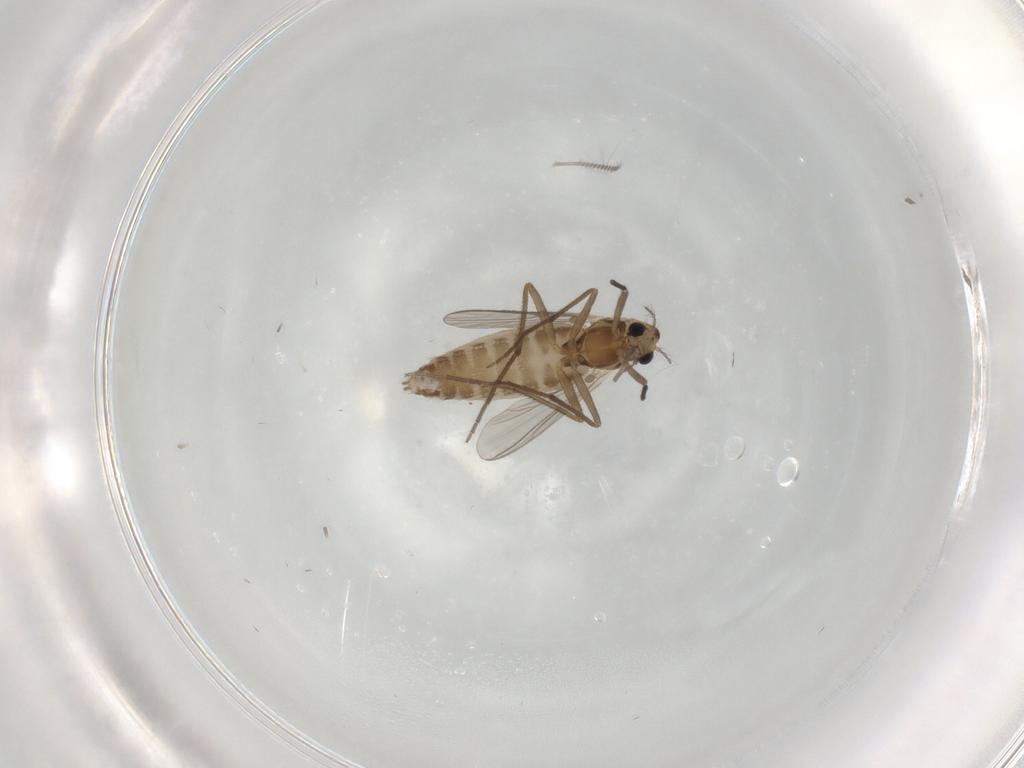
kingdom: Animalia
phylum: Arthropoda
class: Insecta
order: Diptera
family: Chironomidae
